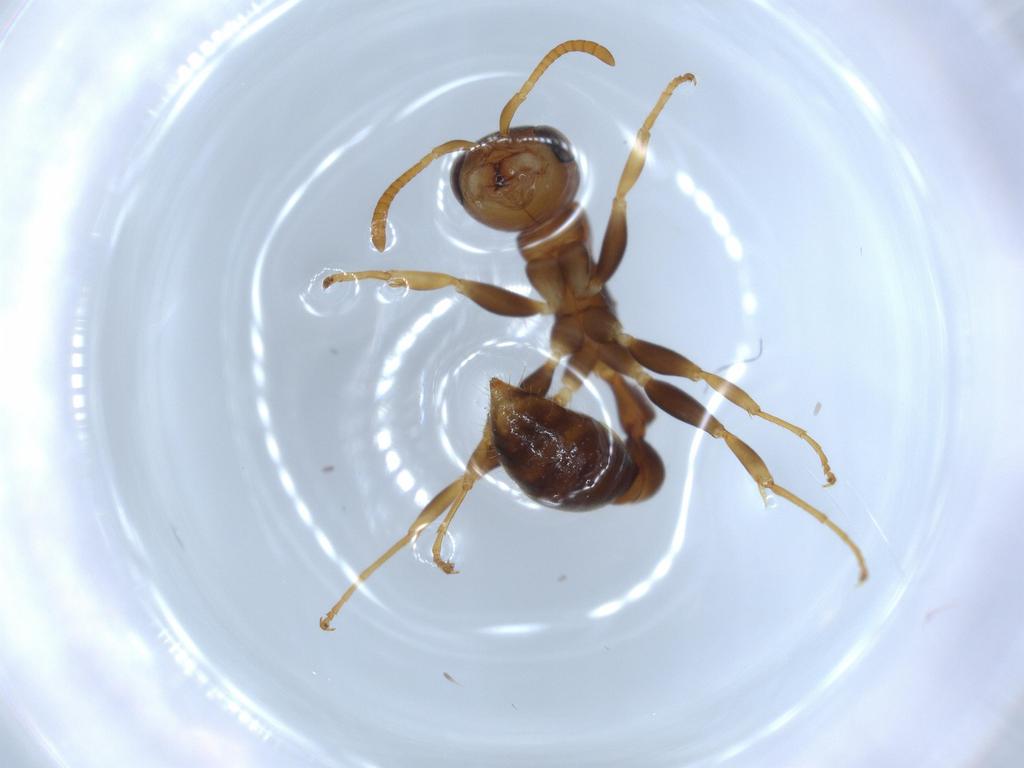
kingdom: Animalia
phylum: Arthropoda
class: Insecta
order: Hymenoptera
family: Formicidae
